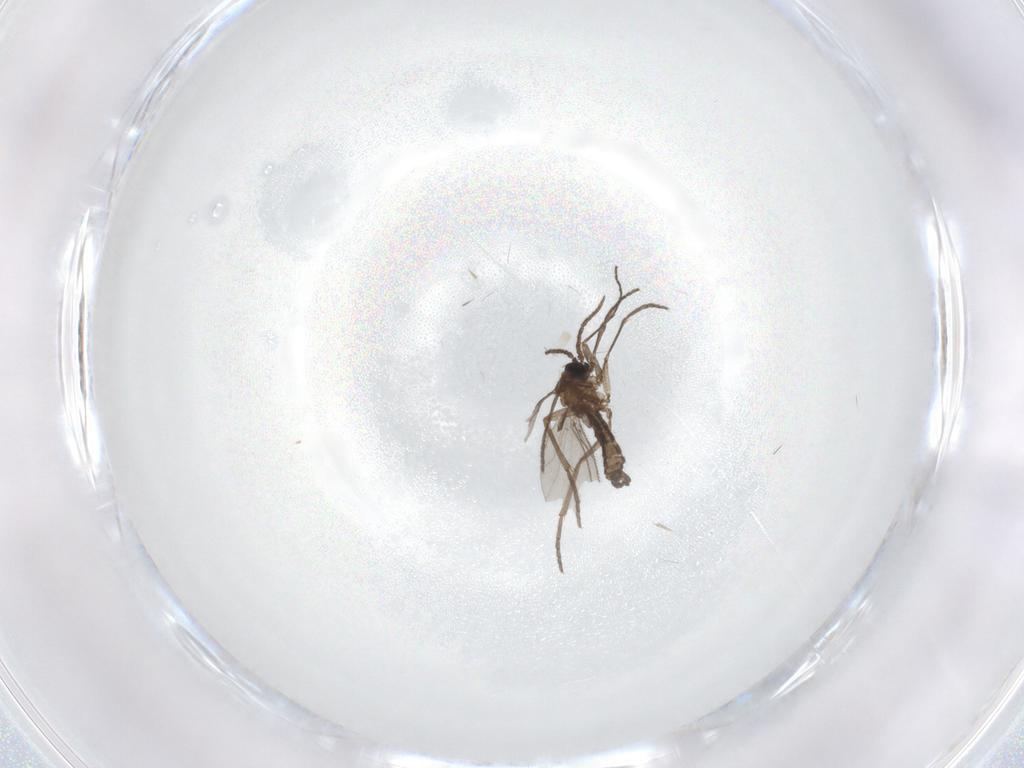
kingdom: Animalia
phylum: Arthropoda
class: Insecta
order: Diptera
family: Sciaridae
